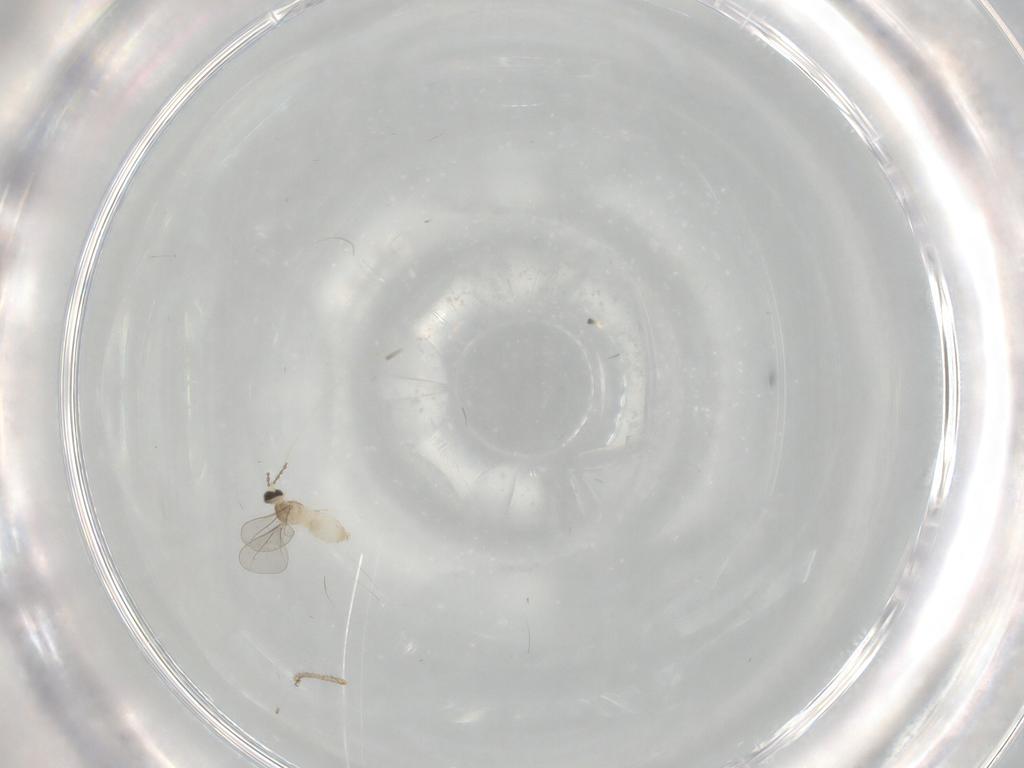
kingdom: Animalia
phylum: Arthropoda
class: Insecta
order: Diptera
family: Drosophilidae
